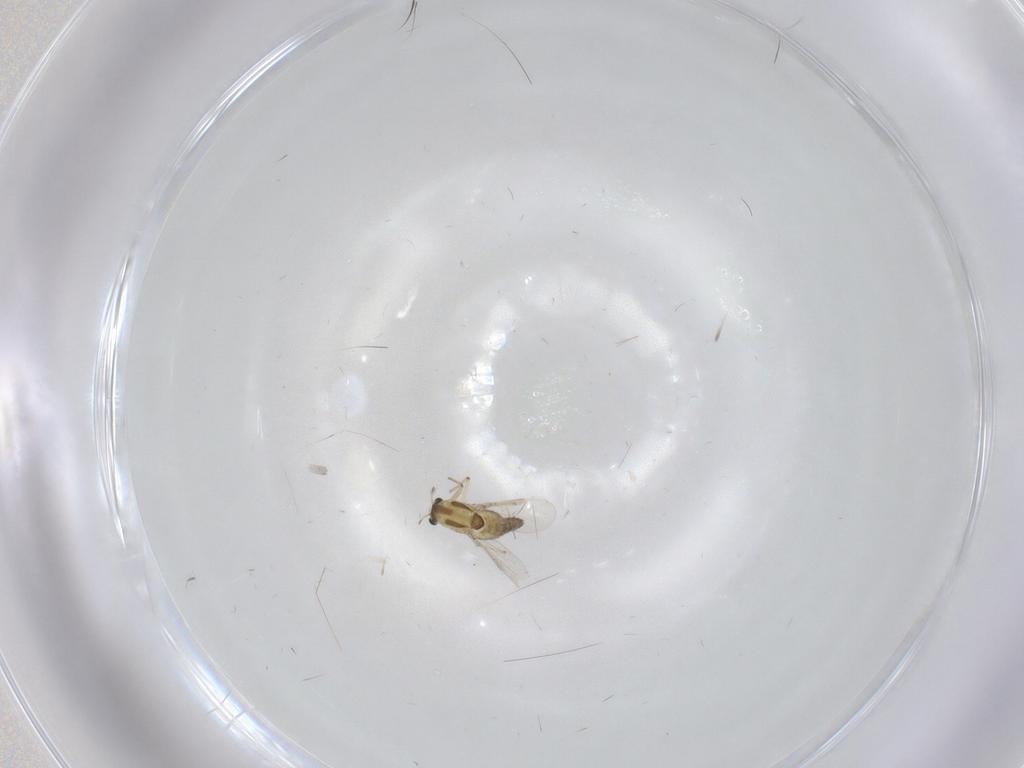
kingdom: Animalia
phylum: Arthropoda
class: Insecta
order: Diptera
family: Chironomidae
